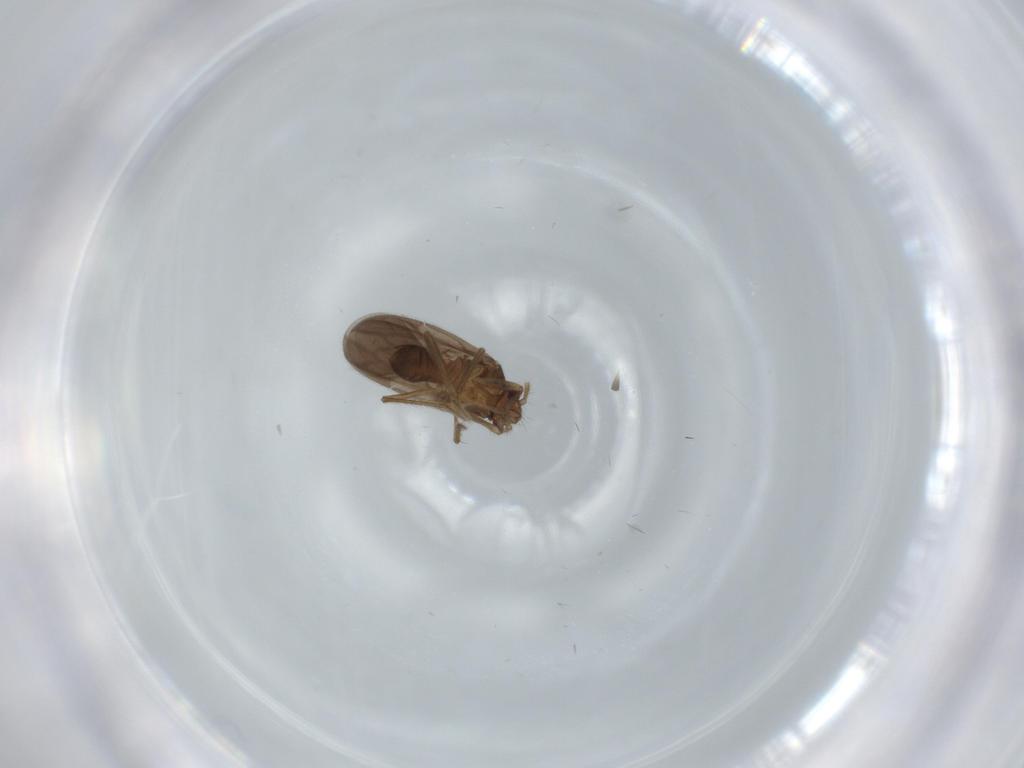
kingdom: Animalia
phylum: Arthropoda
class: Insecta
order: Hemiptera
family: Ceratocombidae
